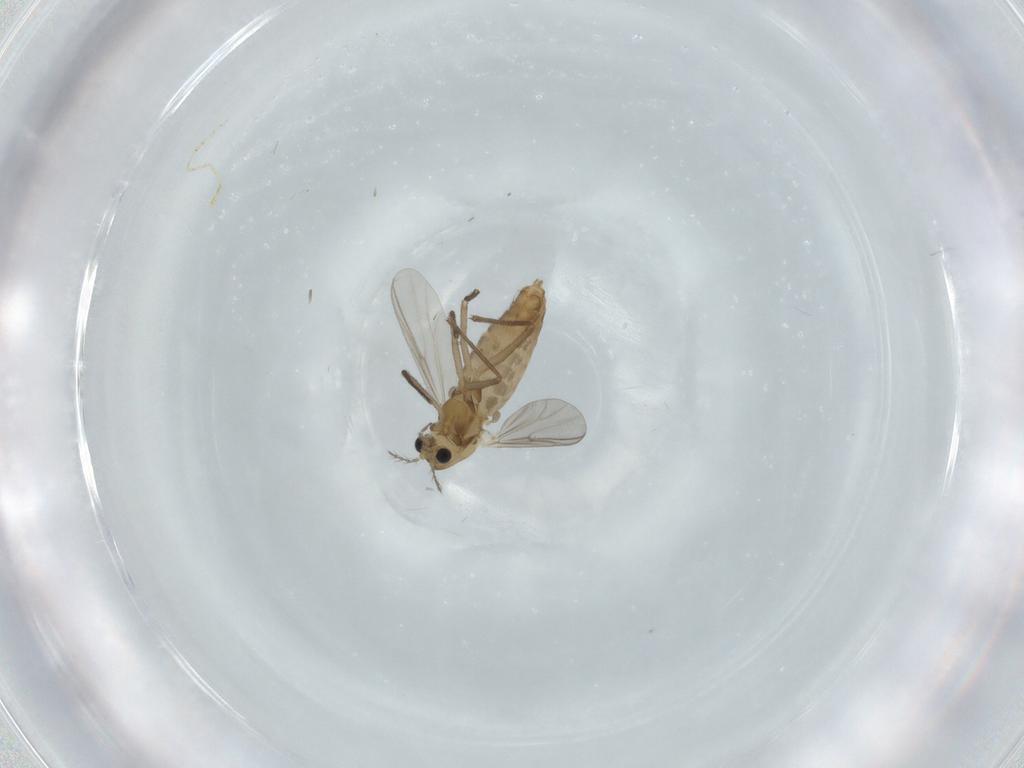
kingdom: Animalia
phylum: Arthropoda
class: Insecta
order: Diptera
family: Chironomidae
